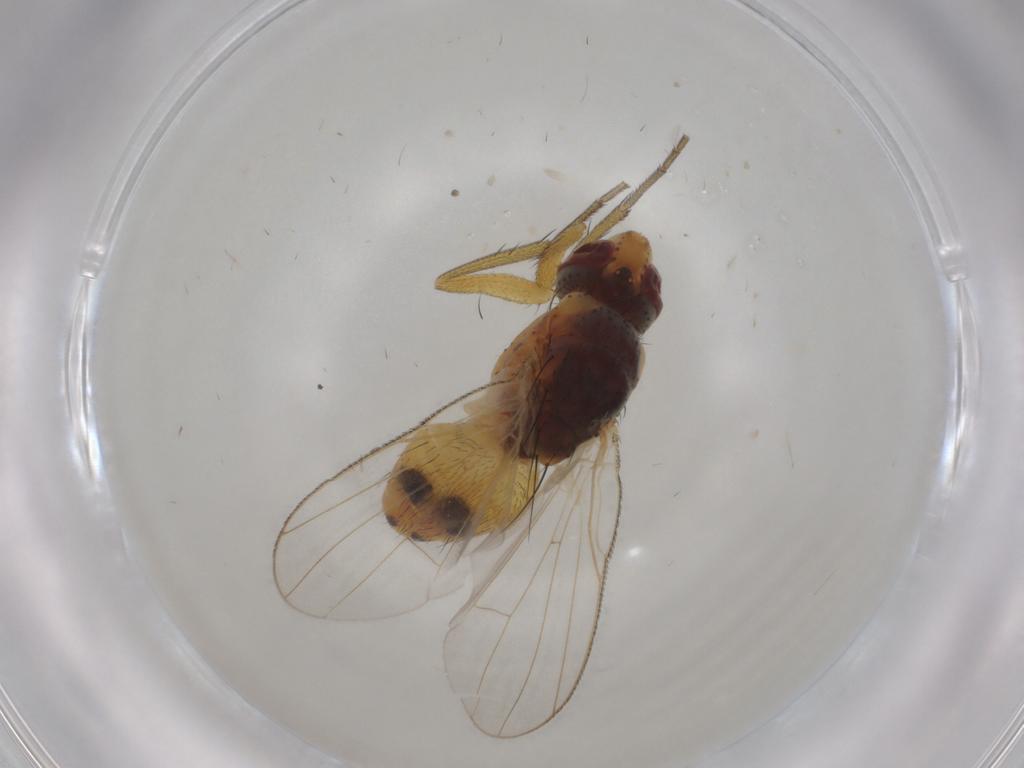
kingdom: Animalia
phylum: Arthropoda
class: Insecta
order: Diptera
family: Muscidae
